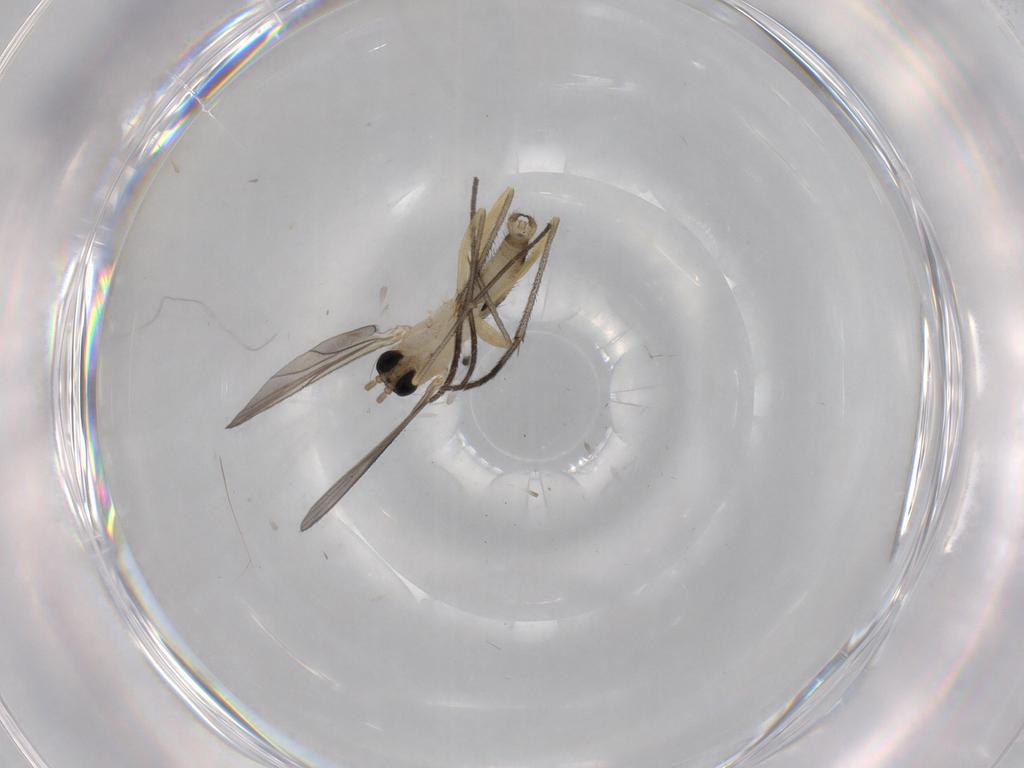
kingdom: Animalia
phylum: Arthropoda
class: Insecta
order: Diptera
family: Sciaridae
